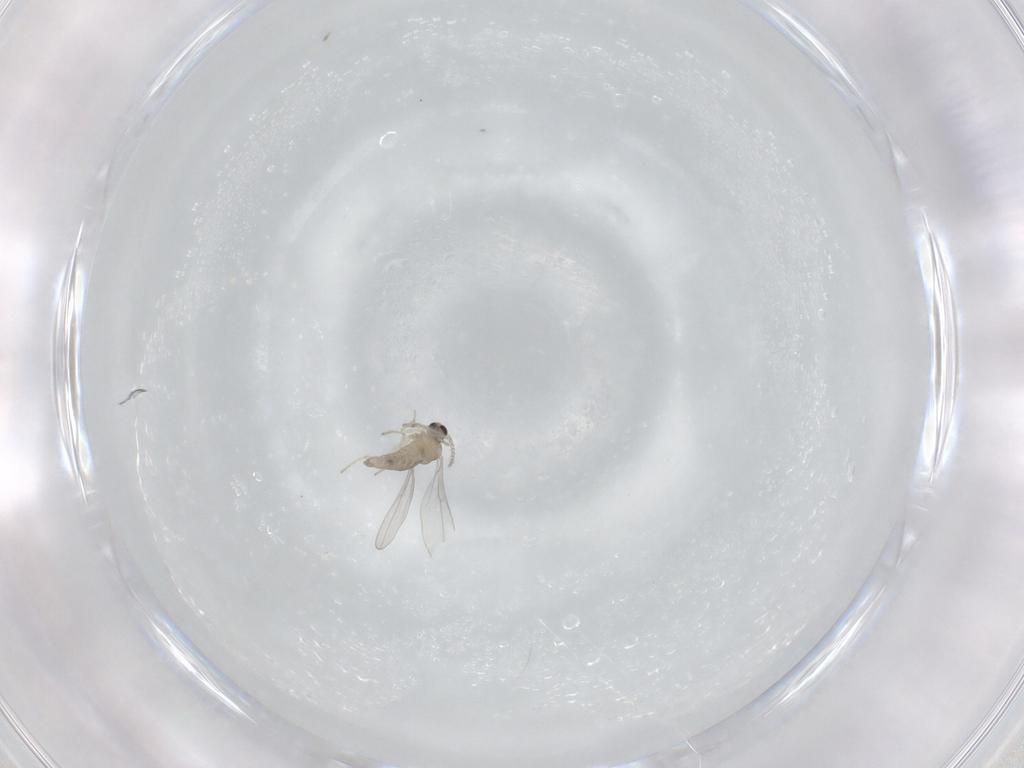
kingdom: Animalia
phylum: Arthropoda
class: Insecta
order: Diptera
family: Cecidomyiidae
